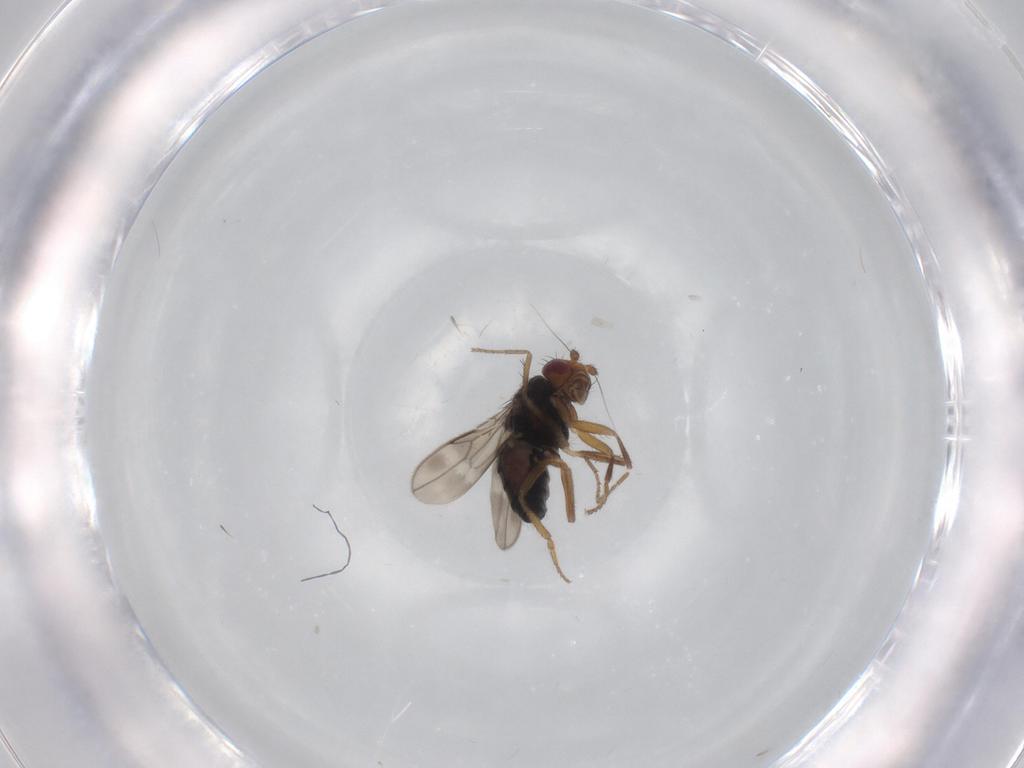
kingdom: Animalia
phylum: Arthropoda
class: Insecta
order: Diptera
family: Sphaeroceridae
